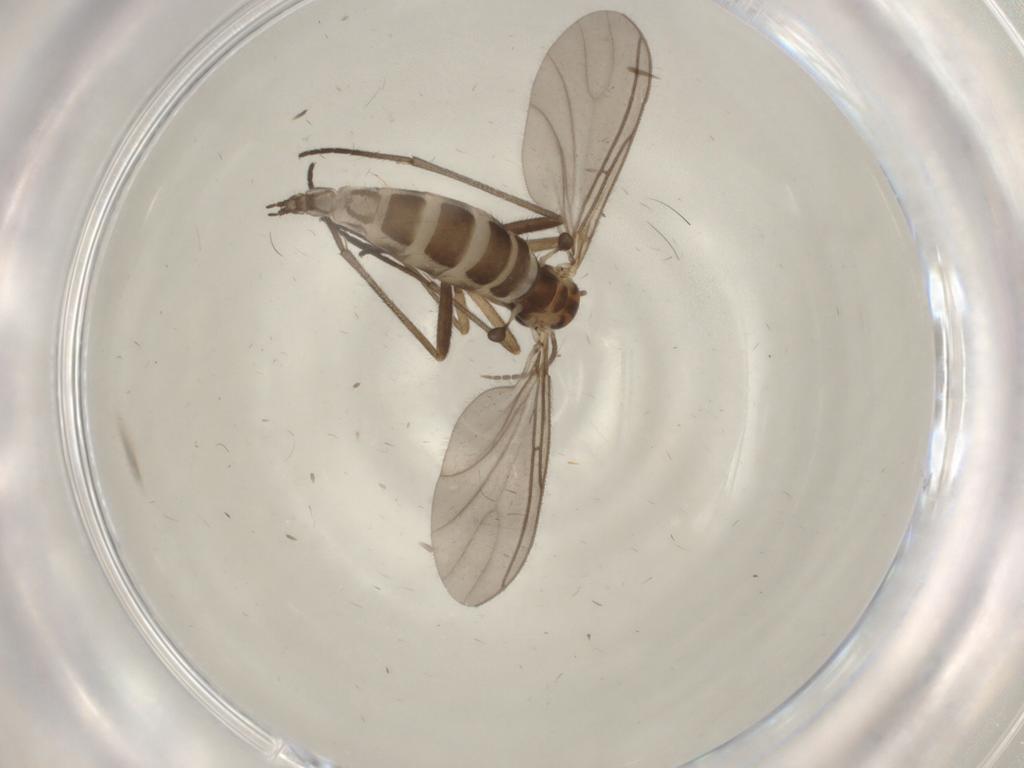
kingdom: Animalia
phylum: Arthropoda
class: Insecta
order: Diptera
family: Sciaridae
